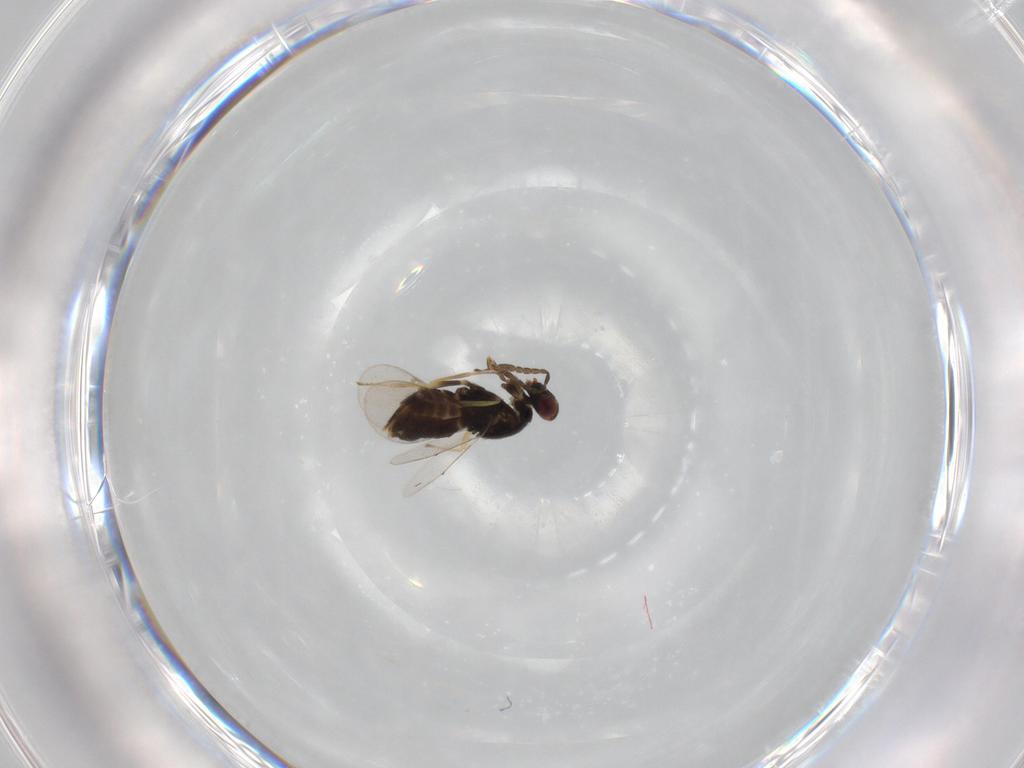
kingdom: Animalia
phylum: Arthropoda
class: Insecta
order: Hymenoptera
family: Aphelinidae
